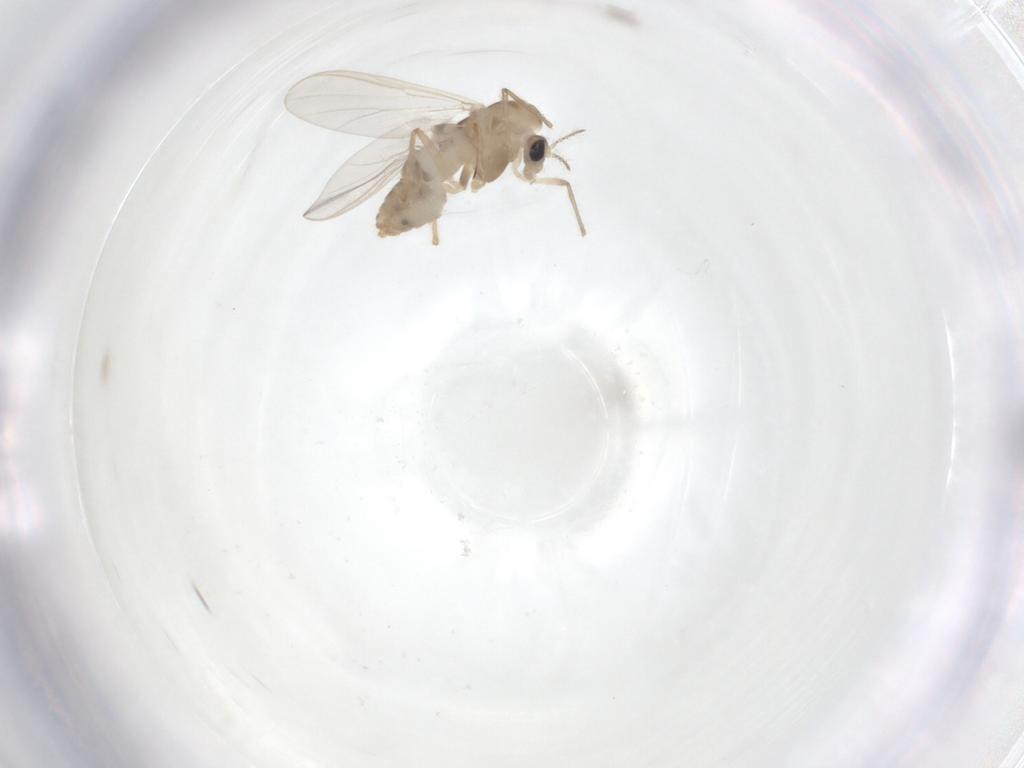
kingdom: Animalia
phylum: Arthropoda
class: Insecta
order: Diptera
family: Chironomidae
